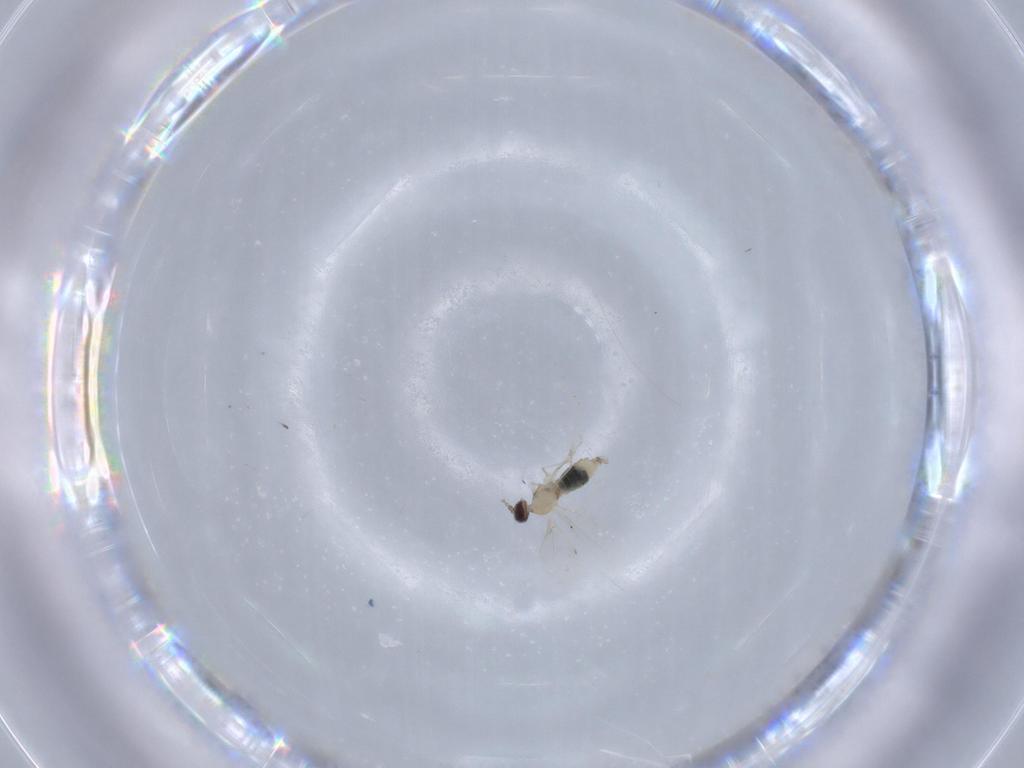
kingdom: Animalia
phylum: Arthropoda
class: Insecta
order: Diptera
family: Cecidomyiidae
